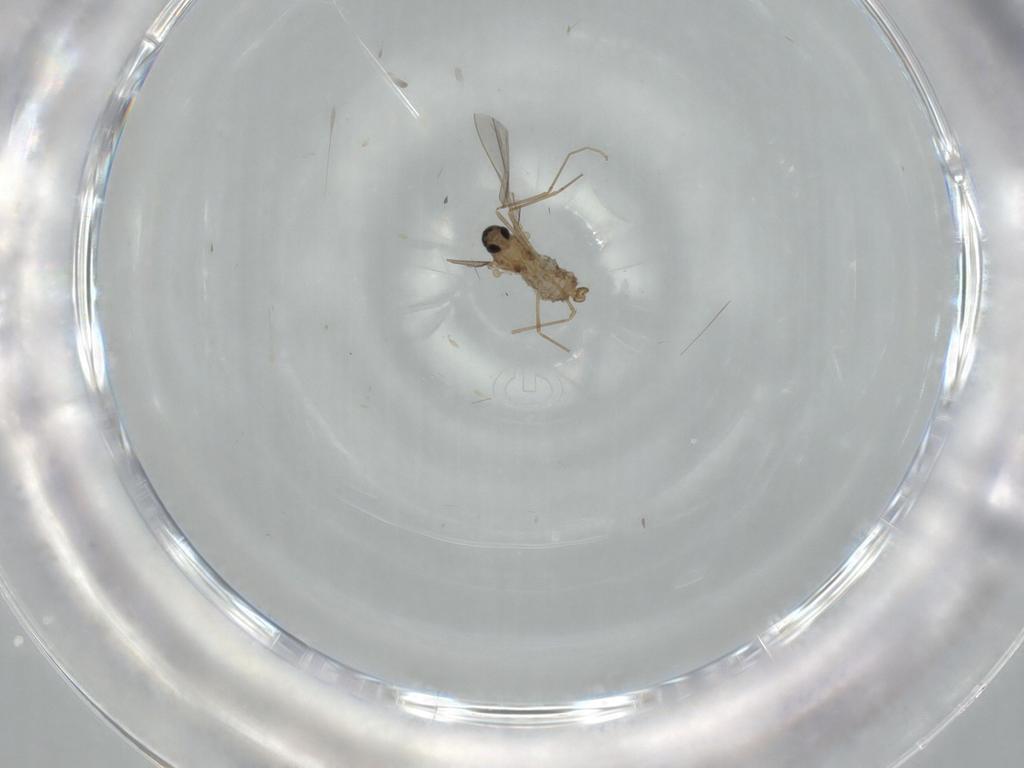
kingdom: Animalia
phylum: Arthropoda
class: Insecta
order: Diptera
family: Cecidomyiidae
